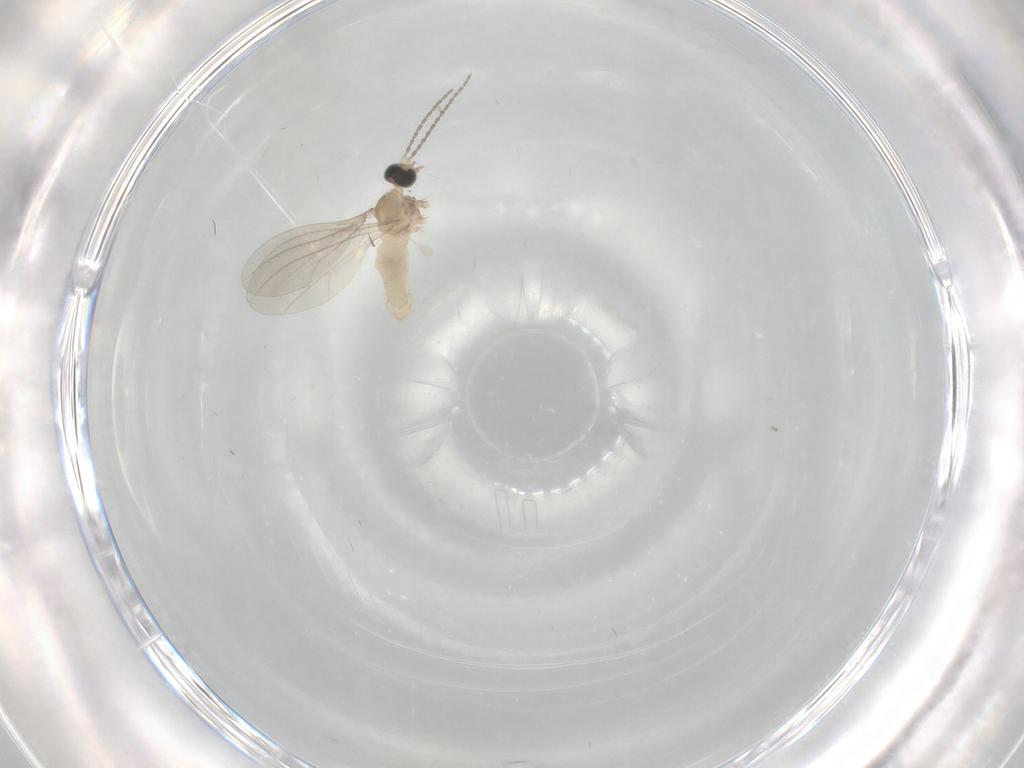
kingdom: Animalia
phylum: Arthropoda
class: Insecta
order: Diptera
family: Cecidomyiidae
